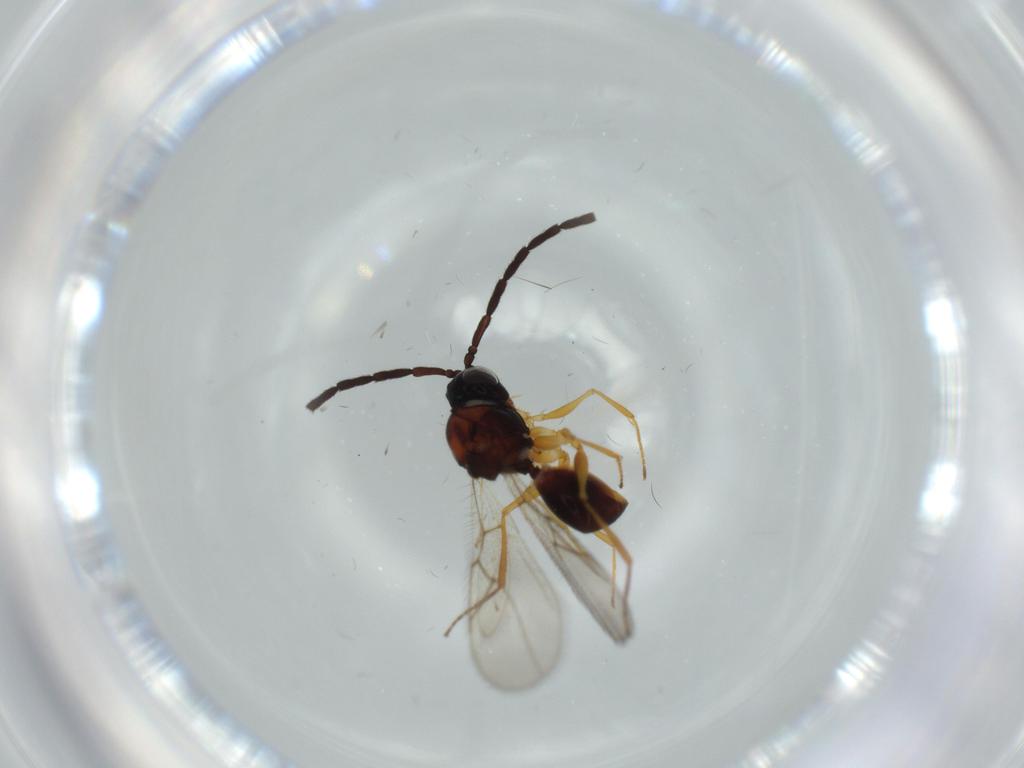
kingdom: Animalia
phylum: Arthropoda
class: Insecta
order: Hymenoptera
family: Figitidae
